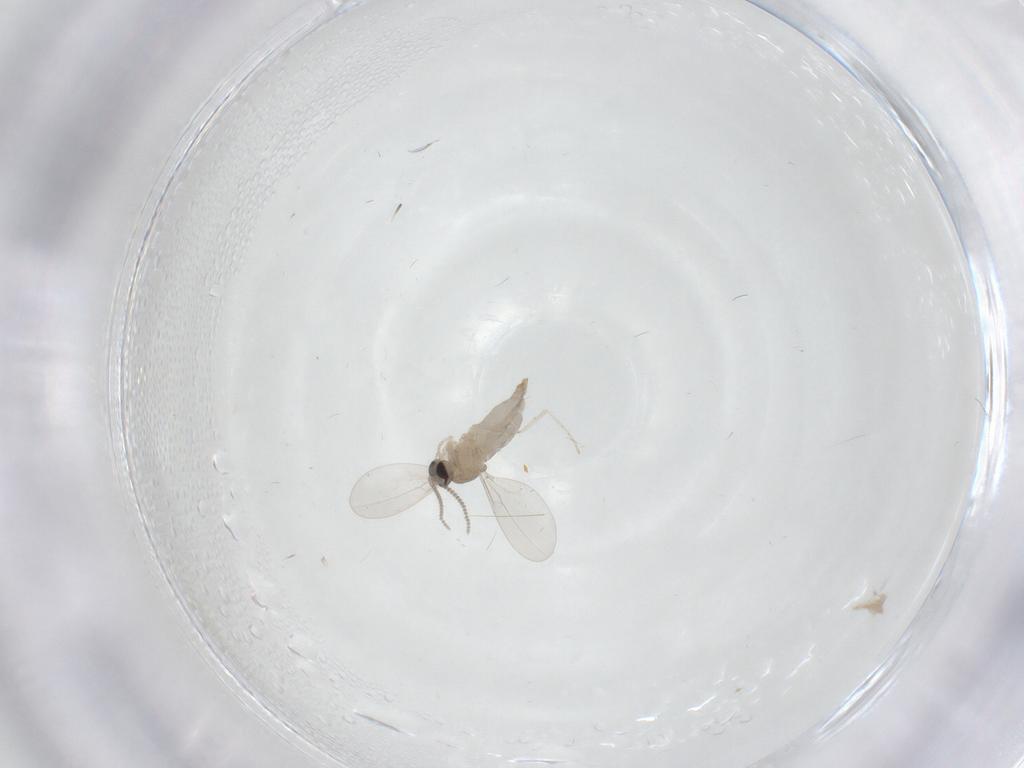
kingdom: Animalia
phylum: Arthropoda
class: Insecta
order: Diptera
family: Cecidomyiidae
